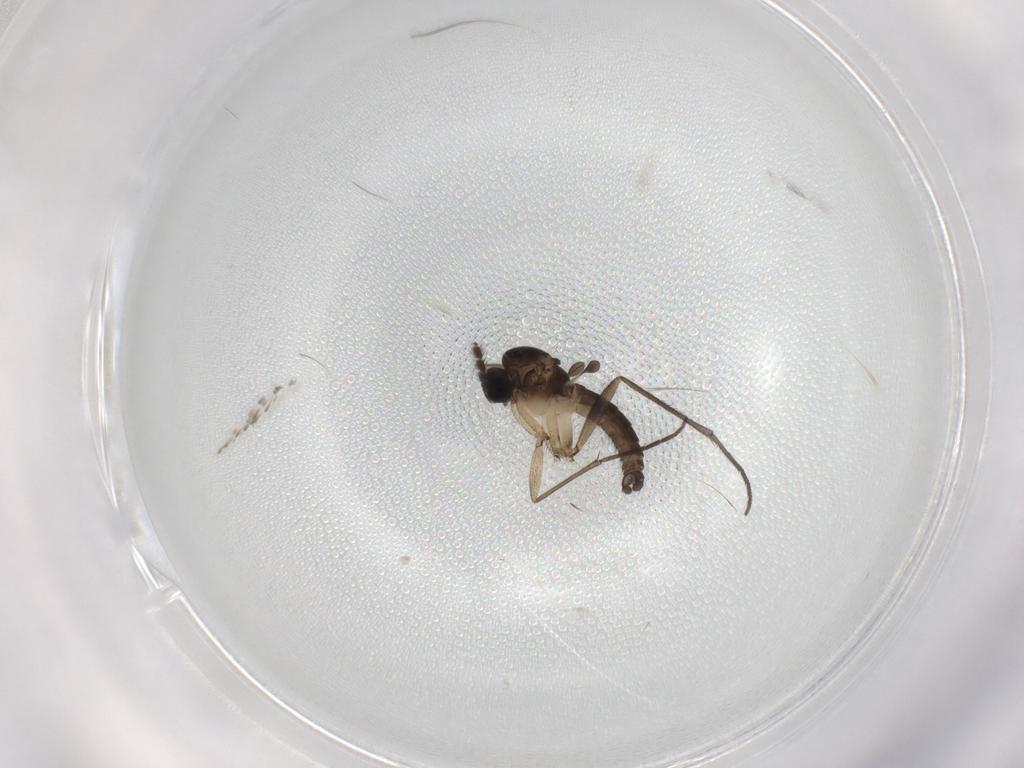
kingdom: Animalia
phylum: Arthropoda
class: Insecta
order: Diptera
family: Sciaridae
